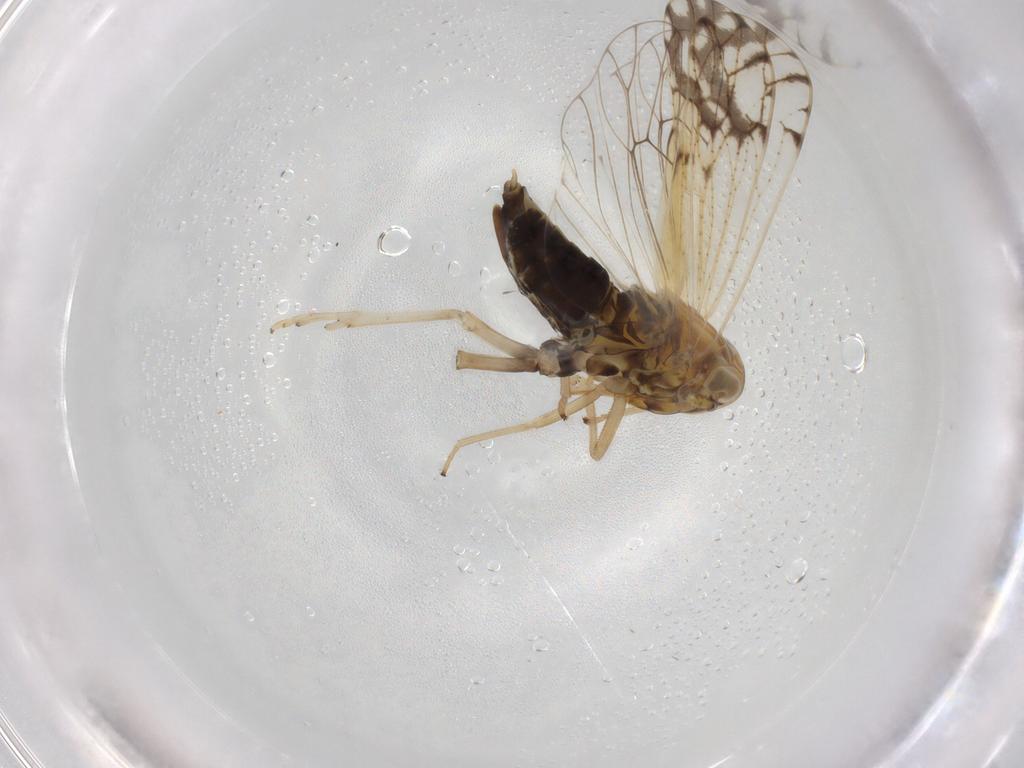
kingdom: Animalia
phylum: Arthropoda
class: Insecta
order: Hemiptera
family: Delphacidae
